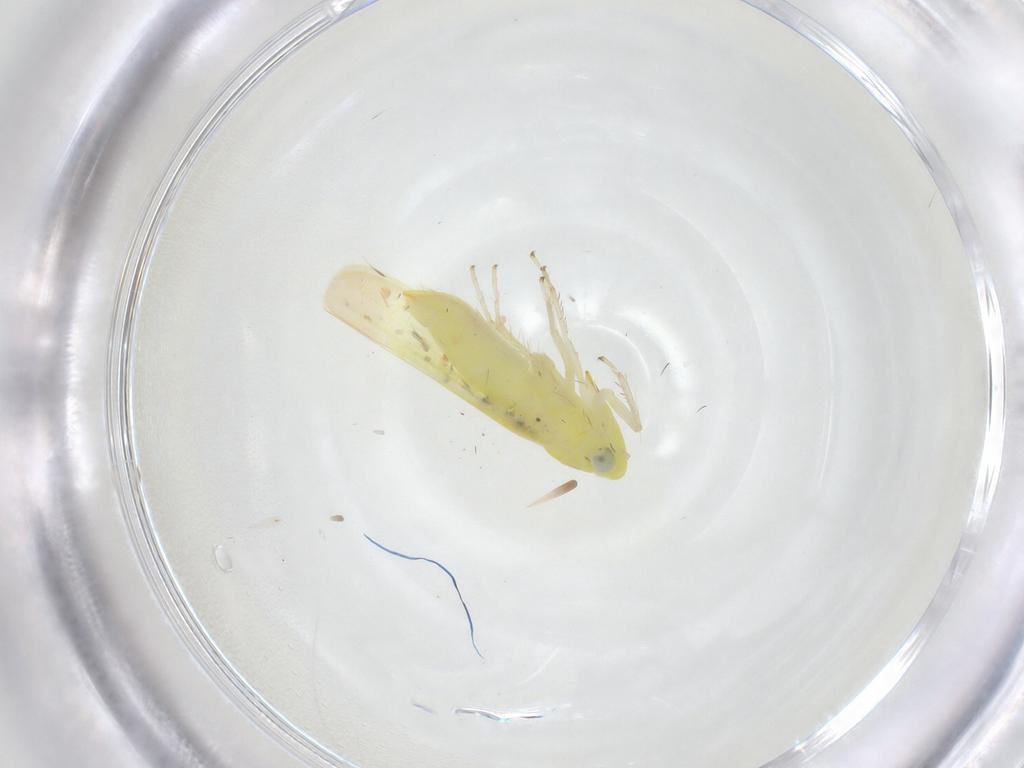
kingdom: Animalia
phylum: Arthropoda
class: Insecta
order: Hemiptera
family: Cicadellidae
